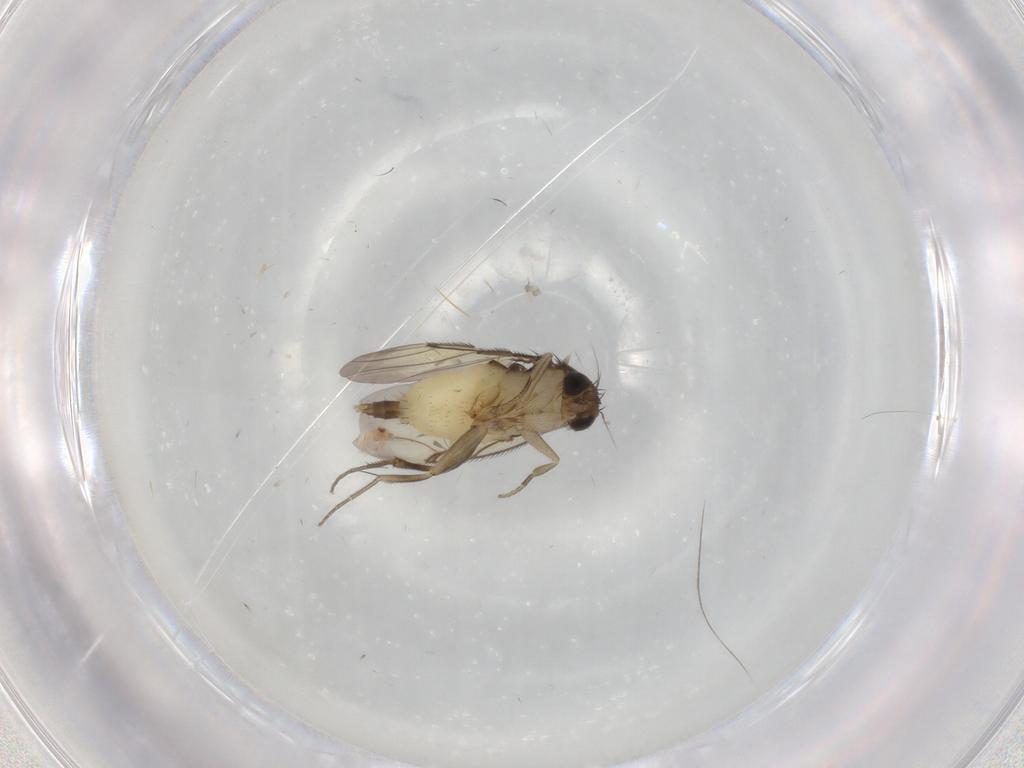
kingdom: Animalia
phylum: Arthropoda
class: Insecta
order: Diptera
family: Phoridae
